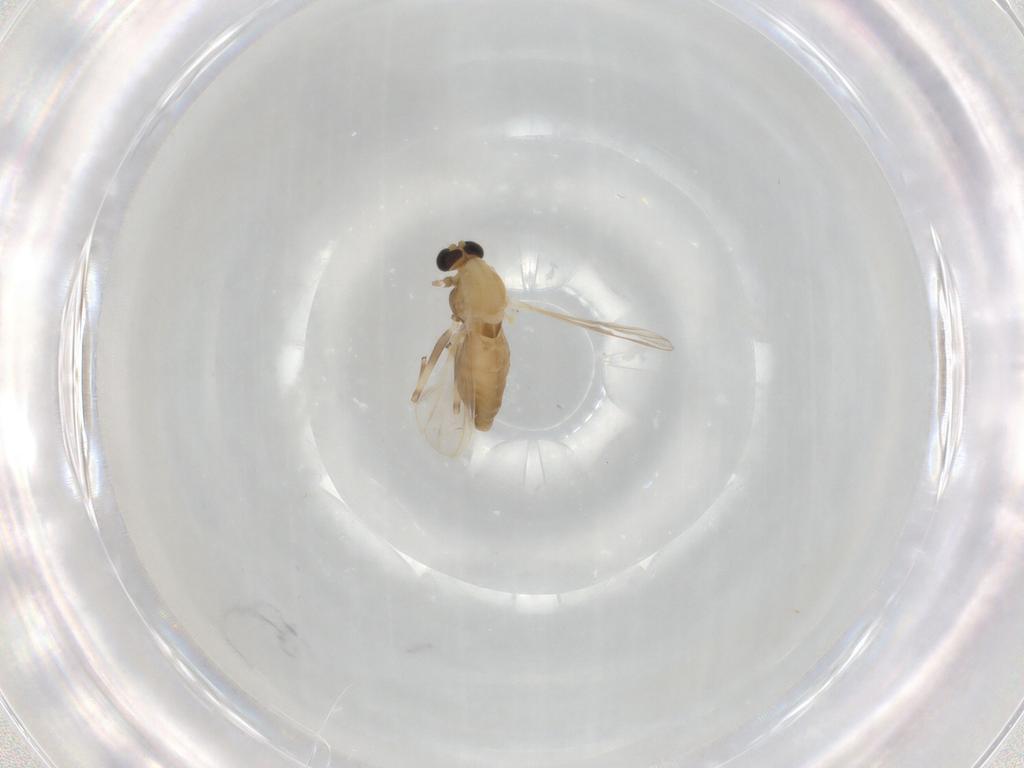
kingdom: Animalia
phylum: Arthropoda
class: Insecta
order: Diptera
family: Chironomidae
